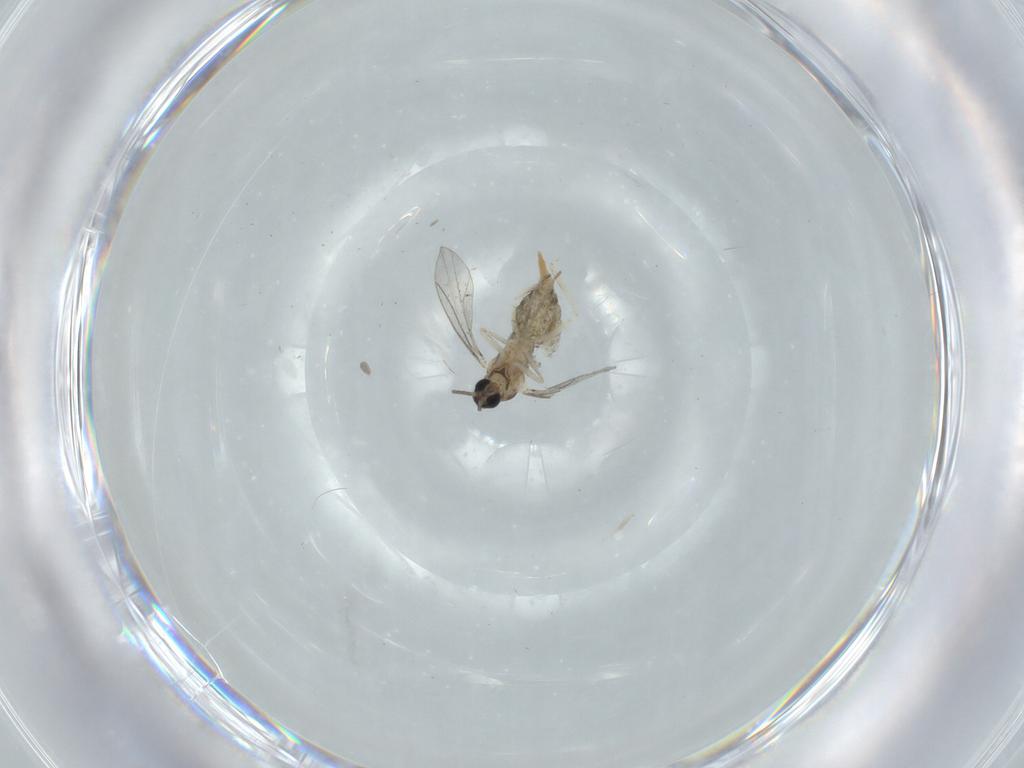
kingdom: Animalia
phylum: Arthropoda
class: Insecta
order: Diptera
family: Cecidomyiidae
